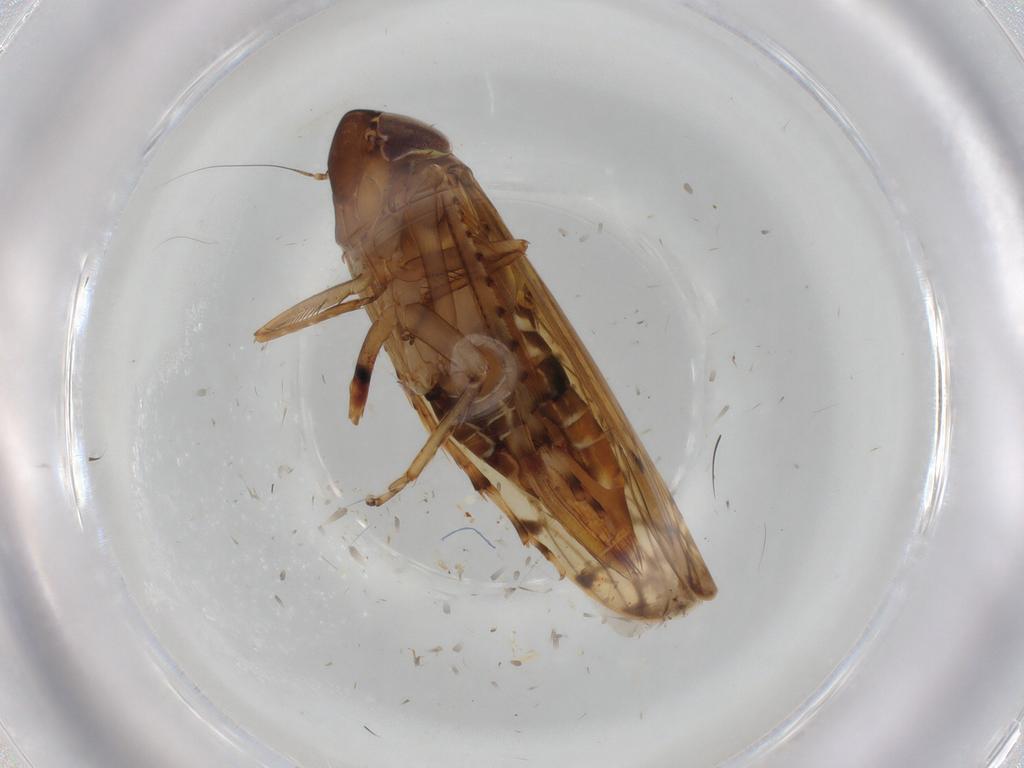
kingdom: Animalia
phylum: Arthropoda
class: Insecta
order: Hemiptera
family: Cicadellidae
